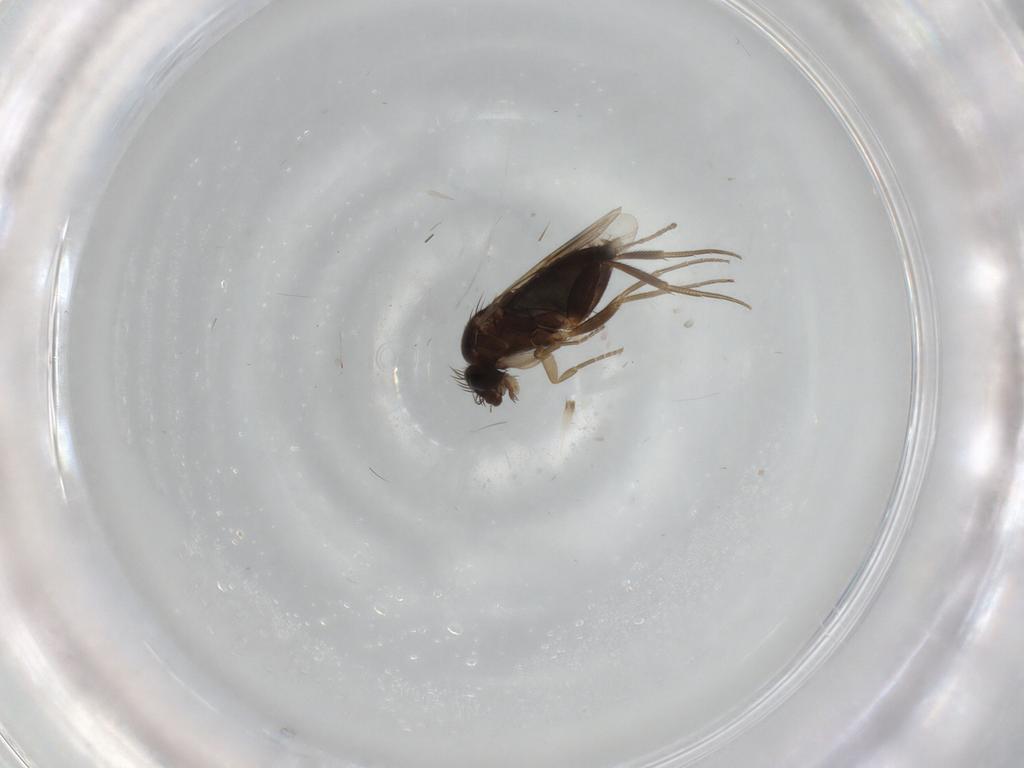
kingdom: Animalia
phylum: Arthropoda
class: Insecta
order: Diptera
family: Phoridae
